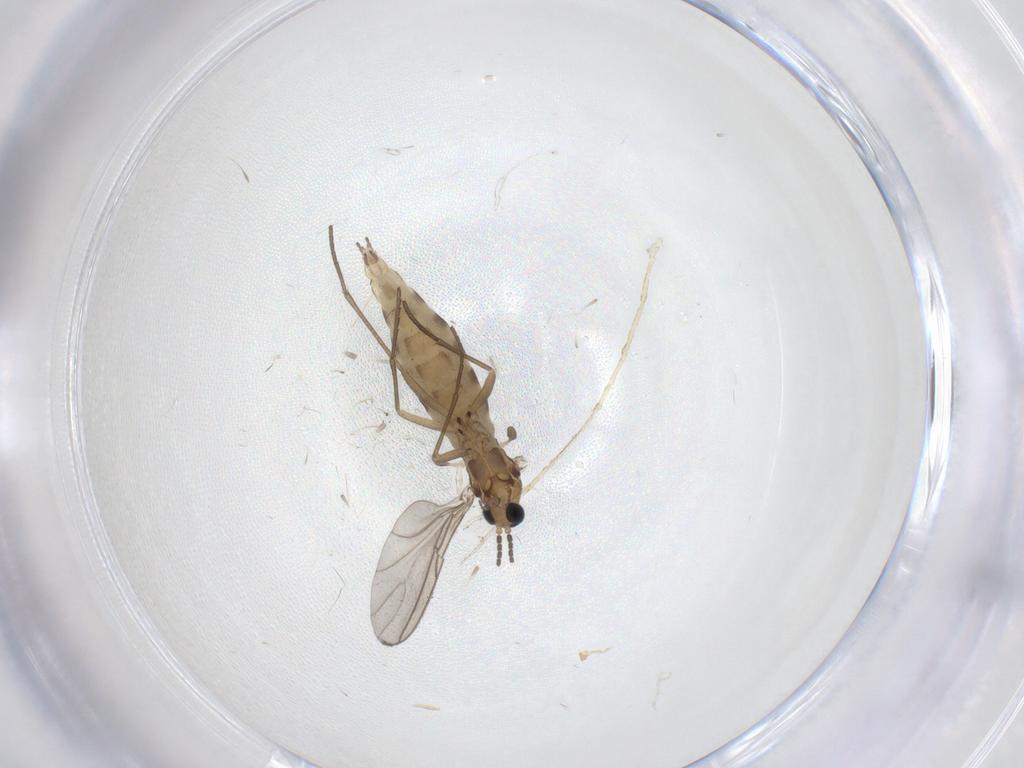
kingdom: Animalia
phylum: Arthropoda
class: Insecta
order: Diptera
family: Sciaridae
